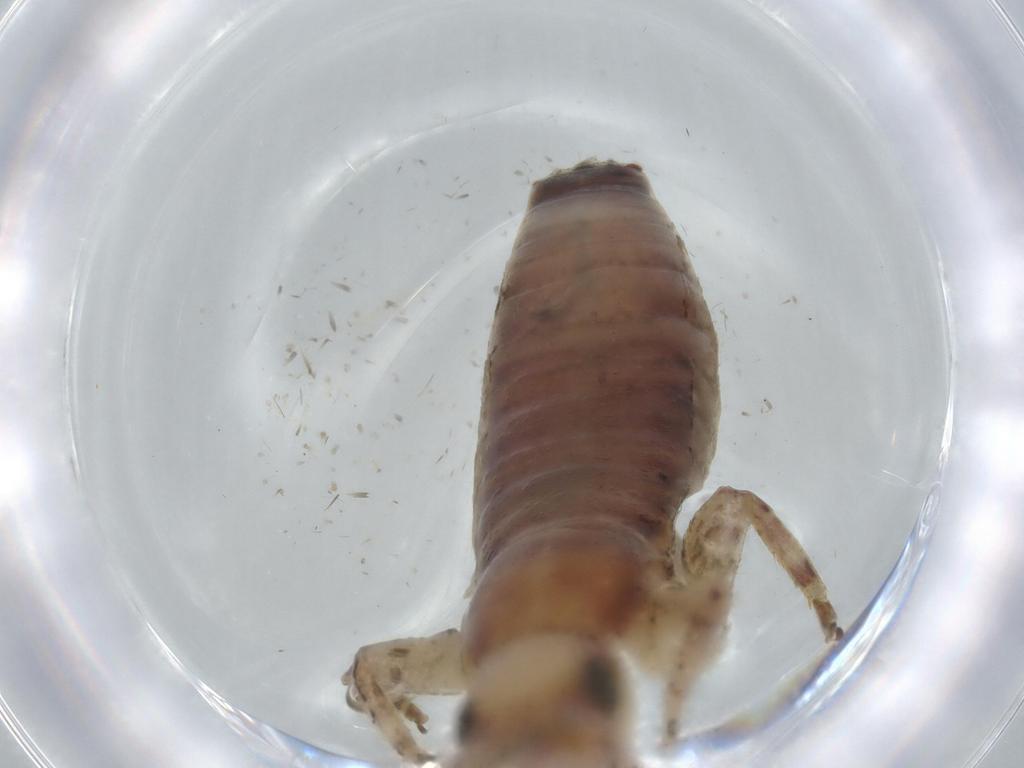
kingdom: Animalia
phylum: Arthropoda
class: Insecta
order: Orthoptera
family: Mogoplistidae
